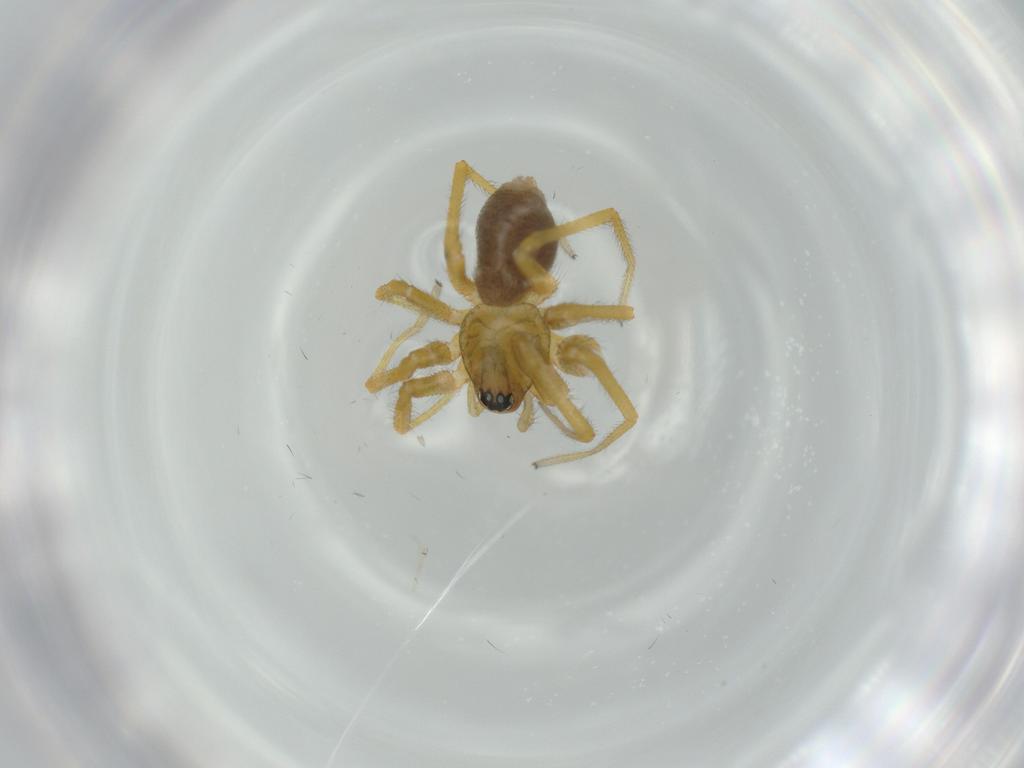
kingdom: Animalia
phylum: Arthropoda
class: Arachnida
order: Araneae
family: Linyphiidae
